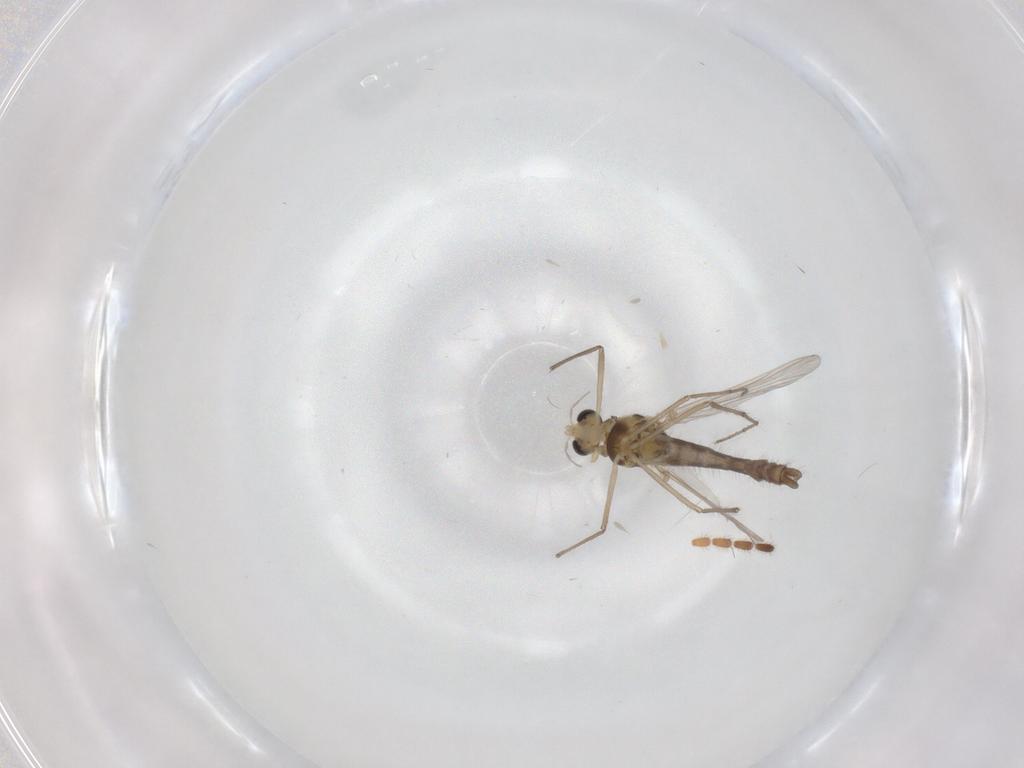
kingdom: Animalia
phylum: Arthropoda
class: Insecta
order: Diptera
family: Chironomidae
